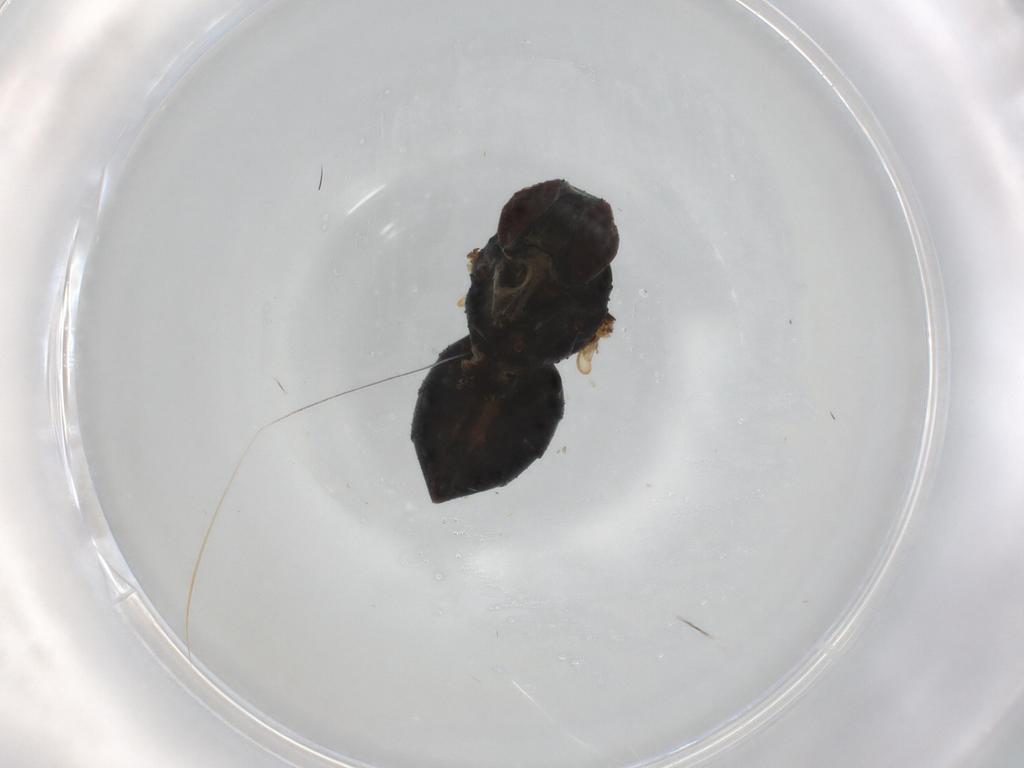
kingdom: Animalia
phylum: Arthropoda
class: Insecta
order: Diptera
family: Muscidae
